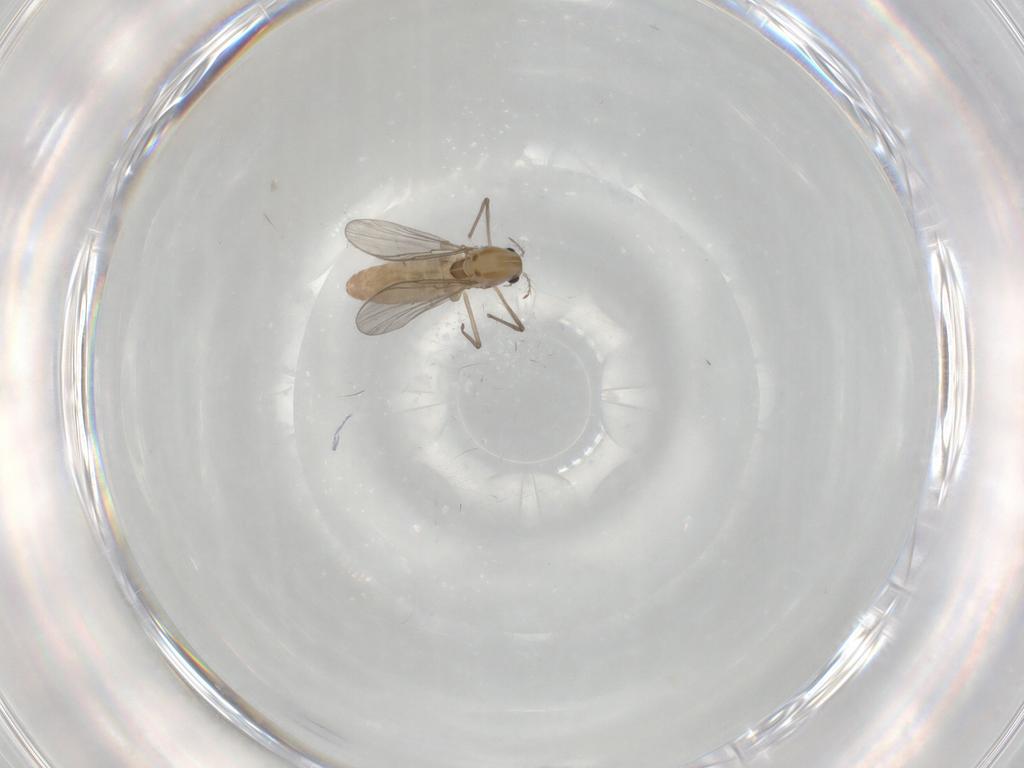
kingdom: Animalia
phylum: Arthropoda
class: Insecta
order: Diptera
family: Chironomidae
